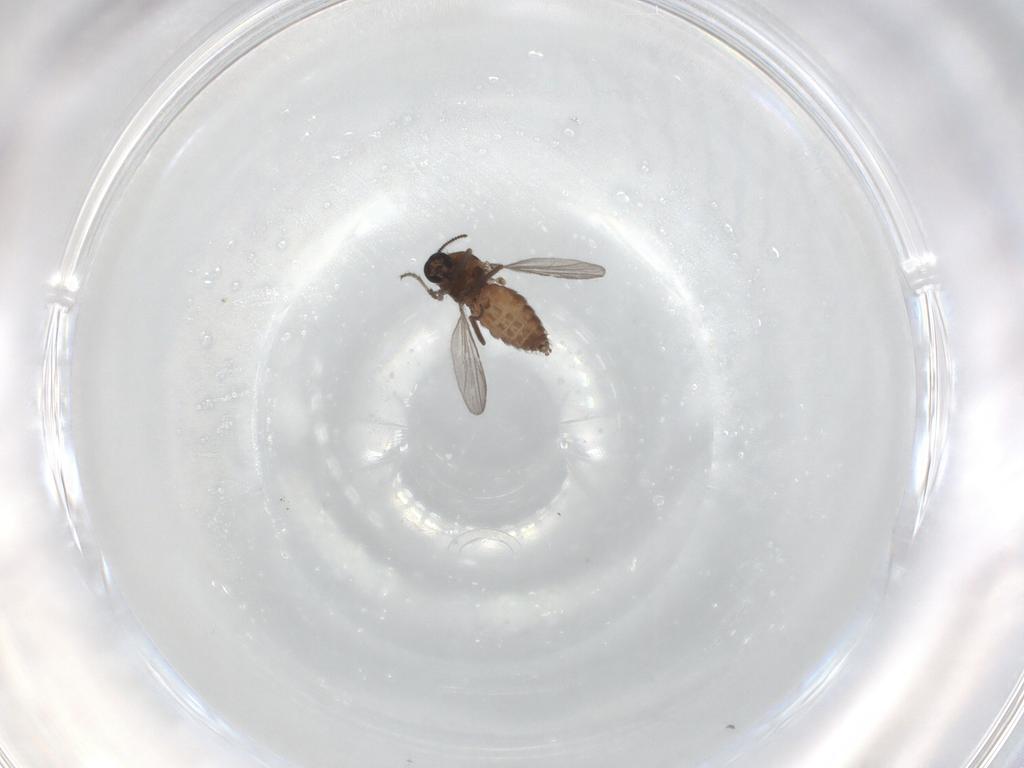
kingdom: Animalia
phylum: Arthropoda
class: Insecta
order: Diptera
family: Ceratopogonidae
